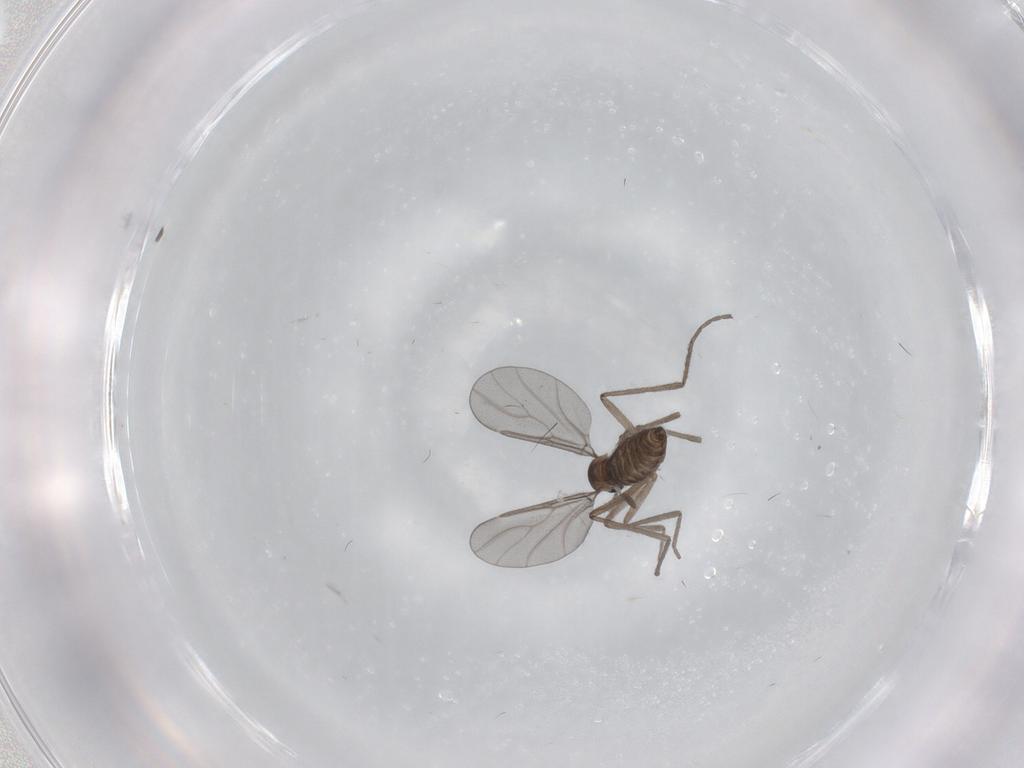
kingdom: Animalia
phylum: Arthropoda
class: Insecta
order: Diptera
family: Cecidomyiidae
